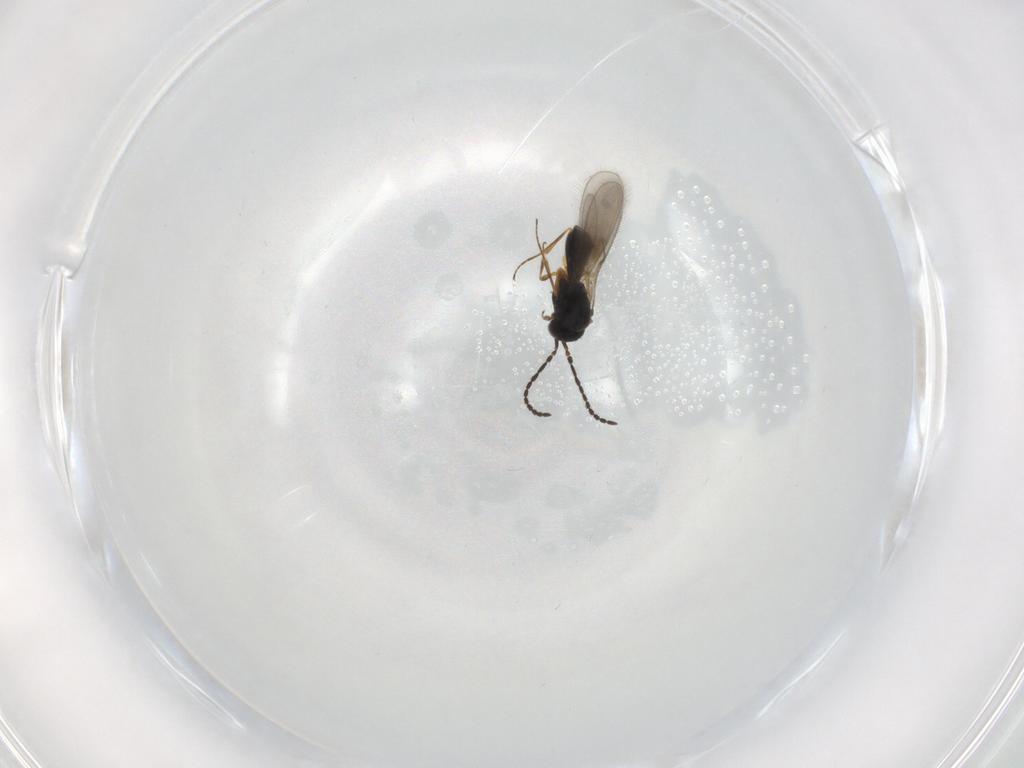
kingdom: Animalia
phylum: Arthropoda
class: Insecta
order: Hymenoptera
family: Scelionidae
